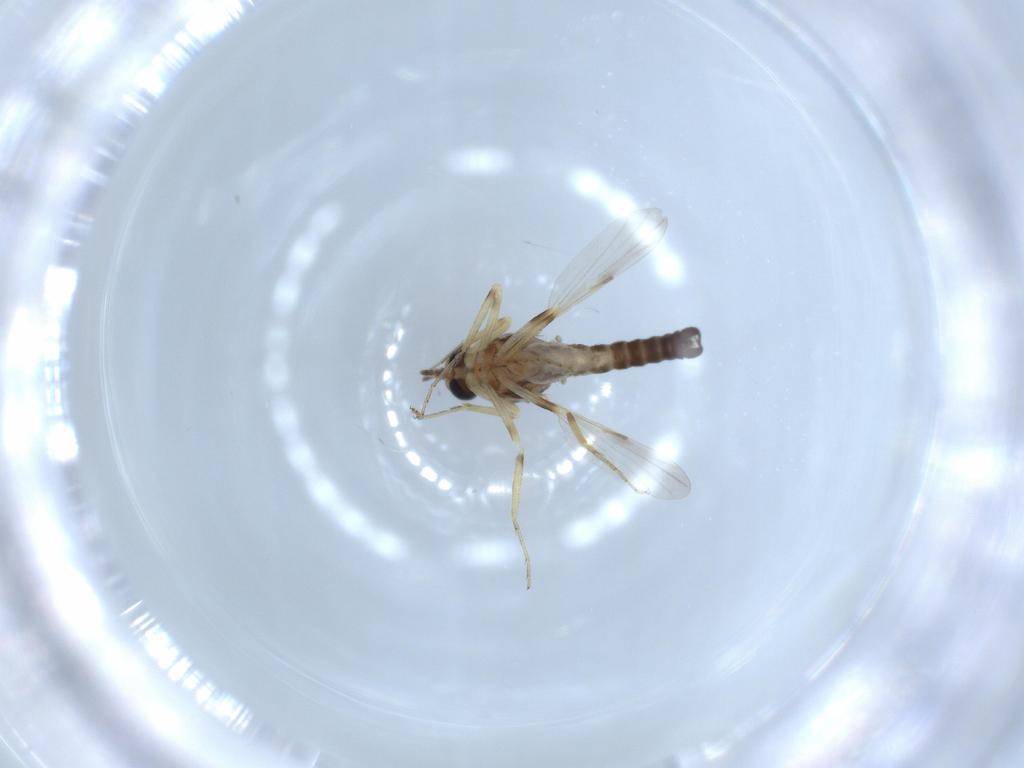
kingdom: Animalia
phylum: Arthropoda
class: Insecta
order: Diptera
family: Ceratopogonidae
